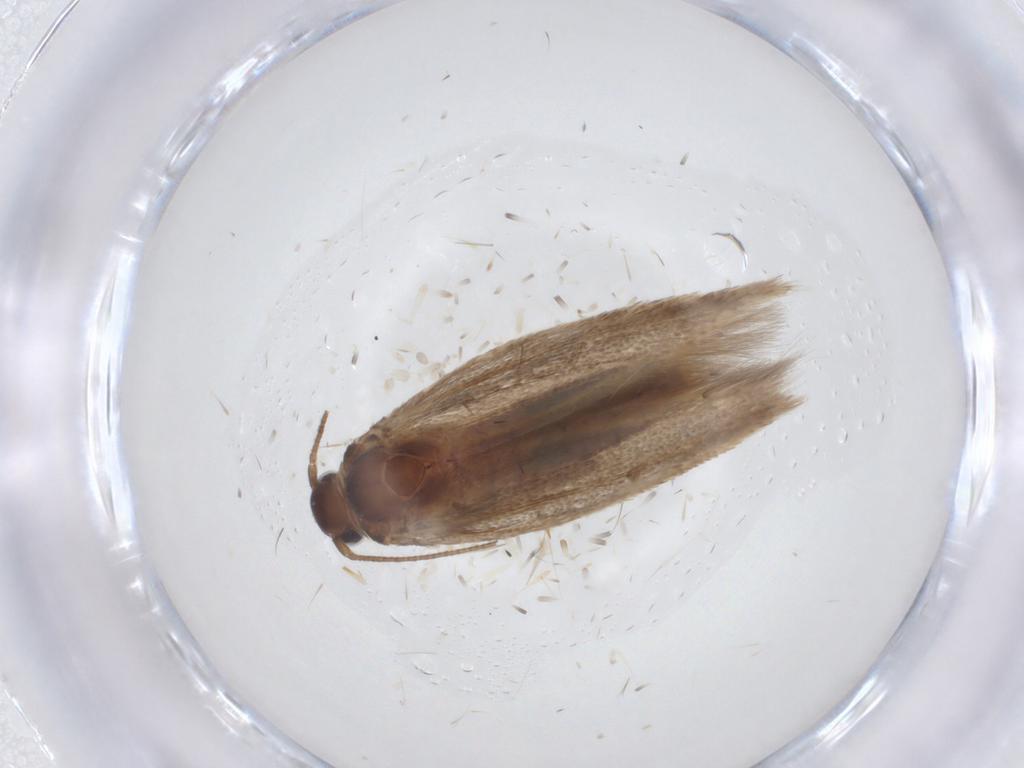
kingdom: Animalia
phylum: Arthropoda
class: Insecta
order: Lepidoptera
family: Cosmopterigidae
